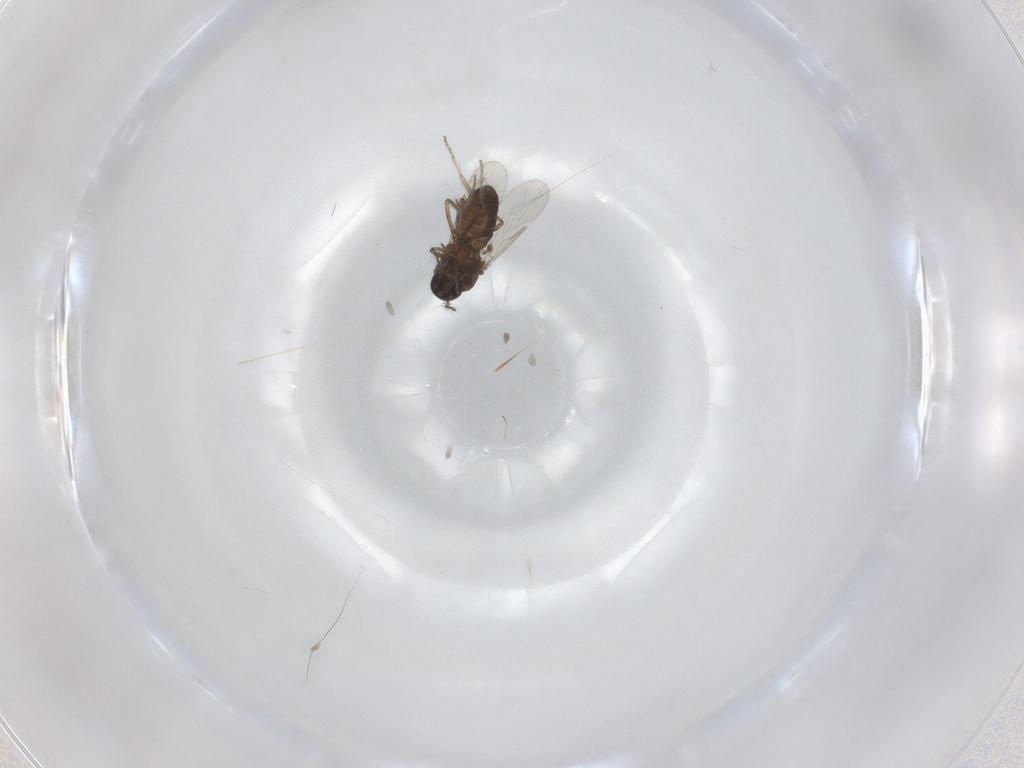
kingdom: Animalia
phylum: Arthropoda
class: Insecta
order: Diptera
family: Ceratopogonidae
